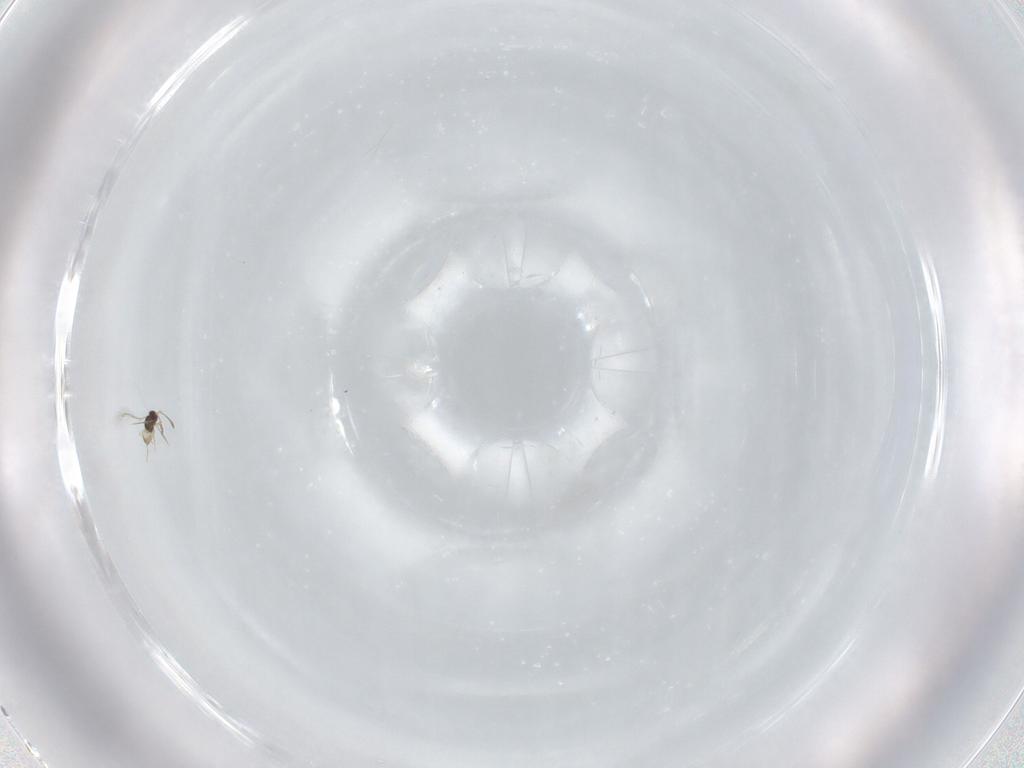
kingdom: Animalia
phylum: Arthropoda
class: Insecta
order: Hymenoptera
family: Mymaridae
